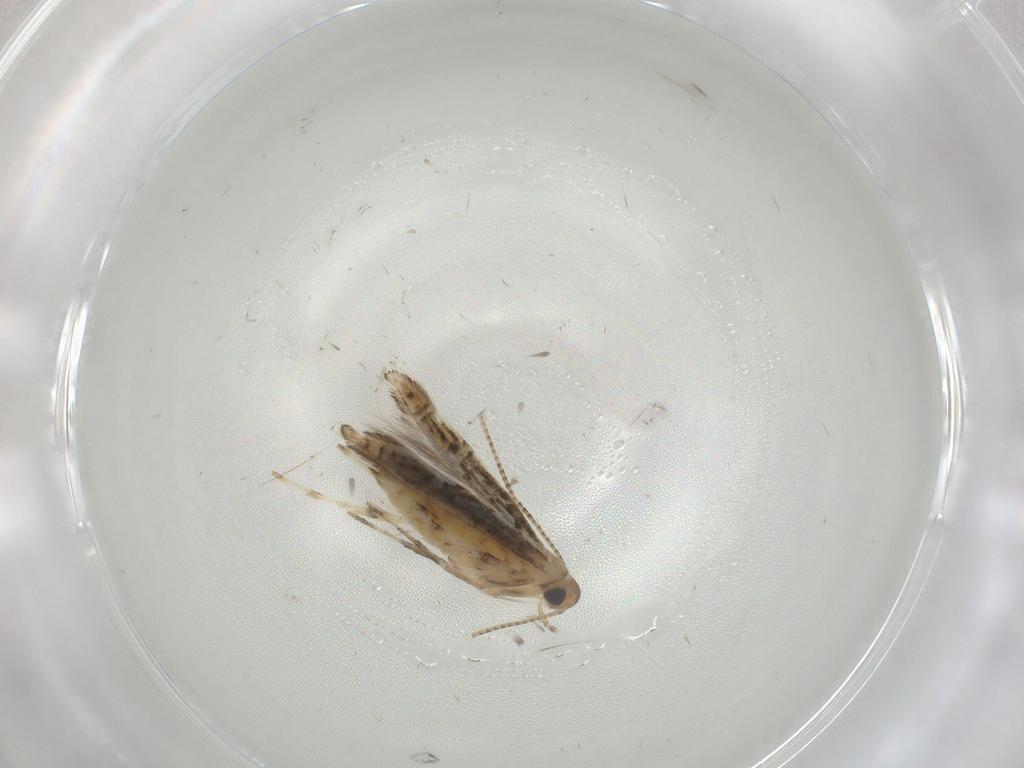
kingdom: Animalia
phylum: Arthropoda
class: Insecta
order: Lepidoptera
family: Gracillariidae
